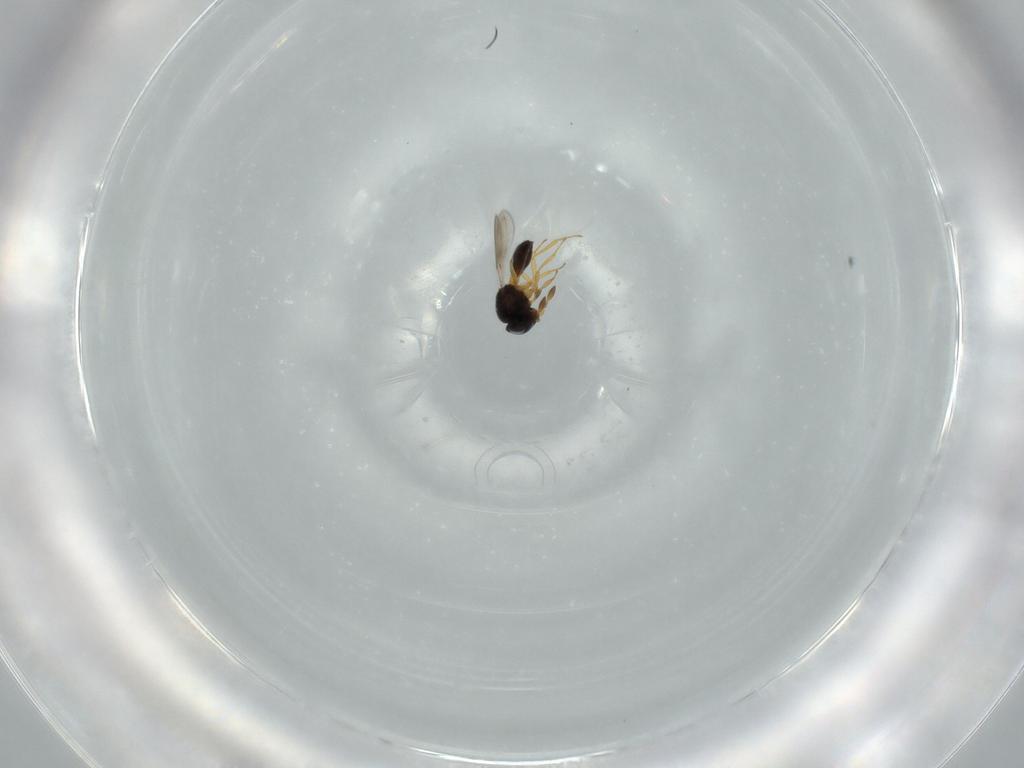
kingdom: Animalia
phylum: Arthropoda
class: Insecta
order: Hymenoptera
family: Scelionidae
